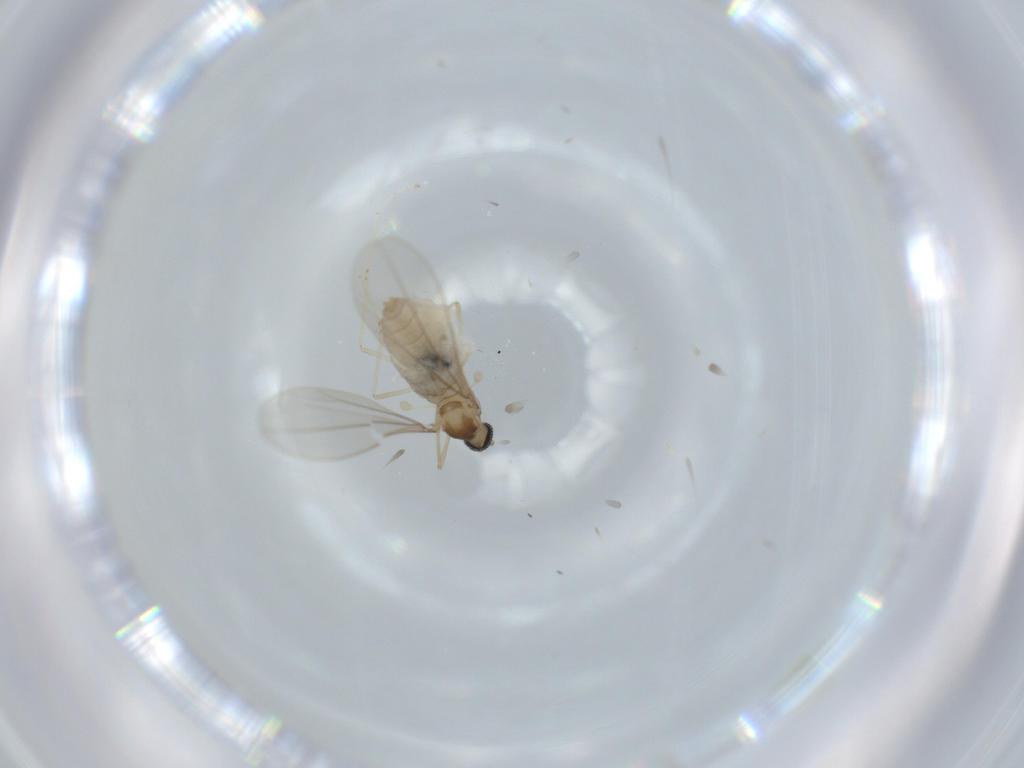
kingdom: Animalia
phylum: Arthropoda
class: Insecta
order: Diptera
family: Cecidomyiidae
